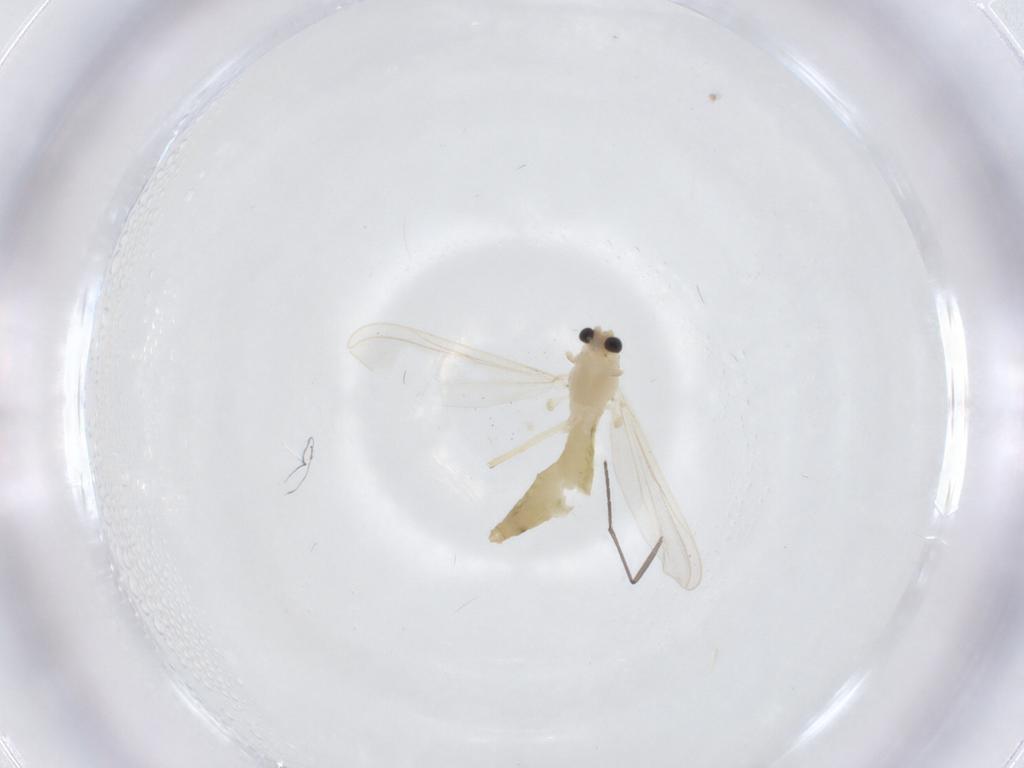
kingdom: Animalia
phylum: Arthropoda
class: Insecta
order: Diptera
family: Chironomidae
